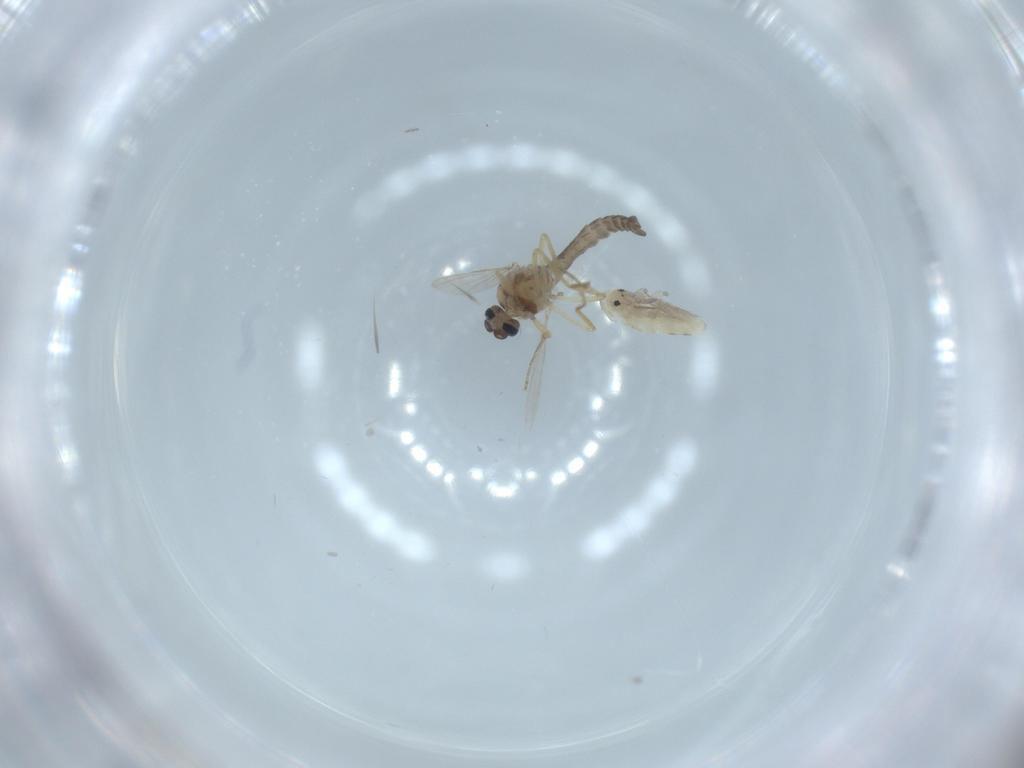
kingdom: Animalia
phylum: Arthropoda
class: Insecta
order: Diptera
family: Ceratopogonidae
